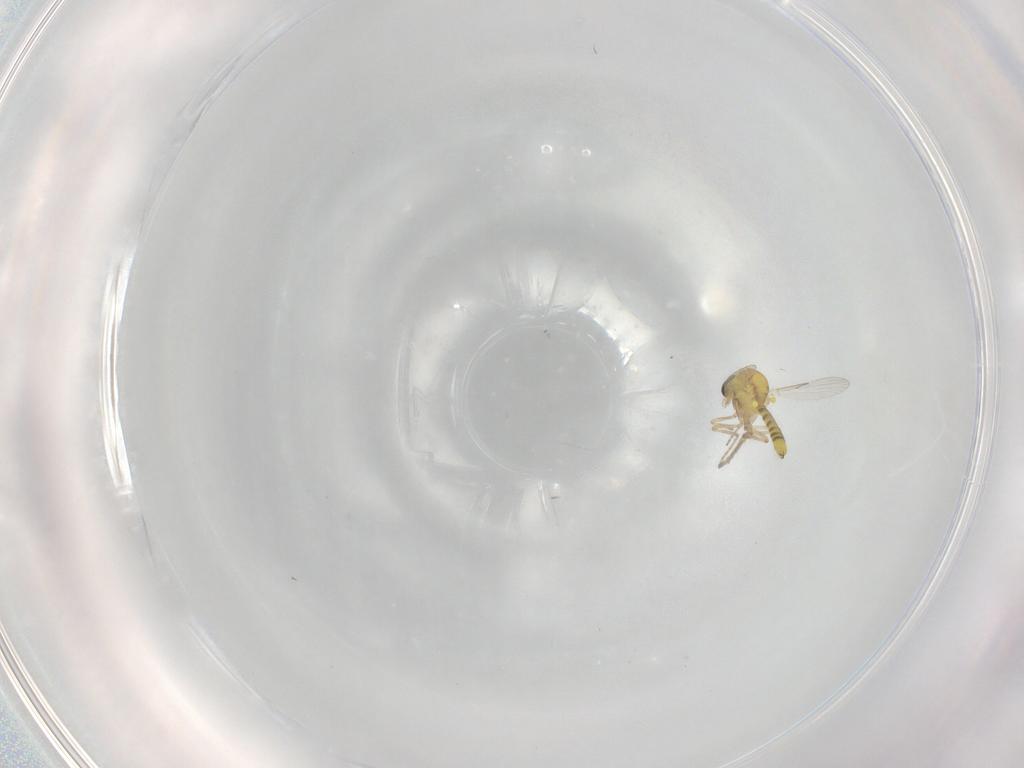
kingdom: Animalia
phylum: Arthropoda
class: Insecta
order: Diptera
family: Ceratopogonidae
